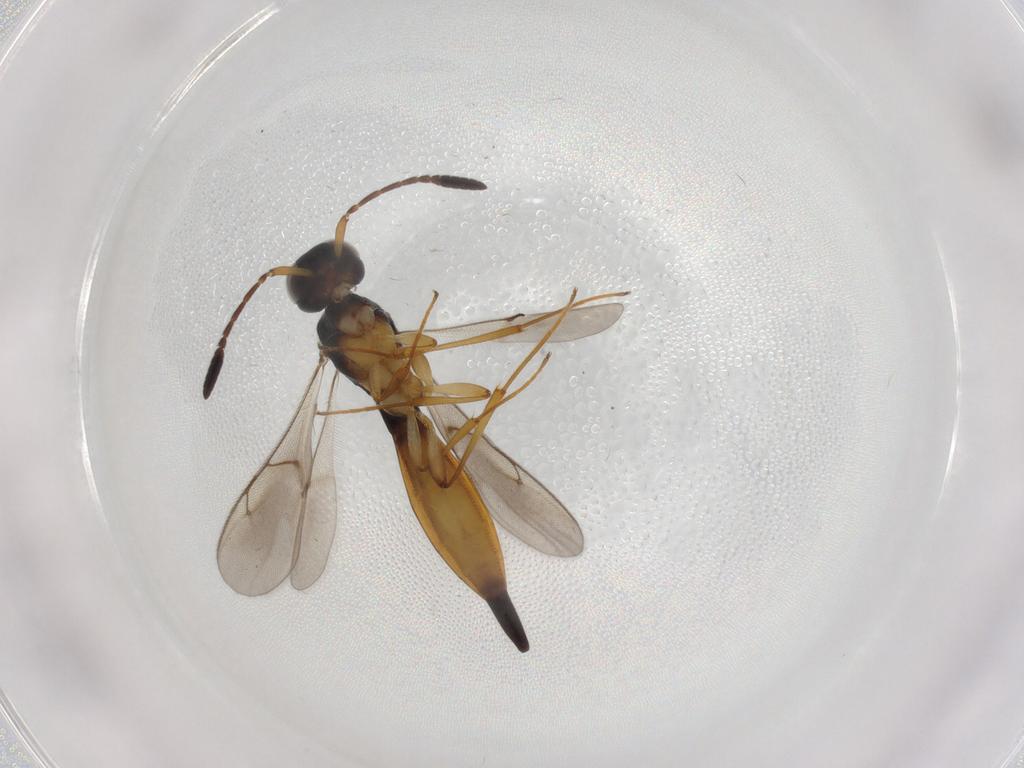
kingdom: Animalia
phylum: Arthropoda
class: Insecta
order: Hymenoptera
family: Scelionidae
